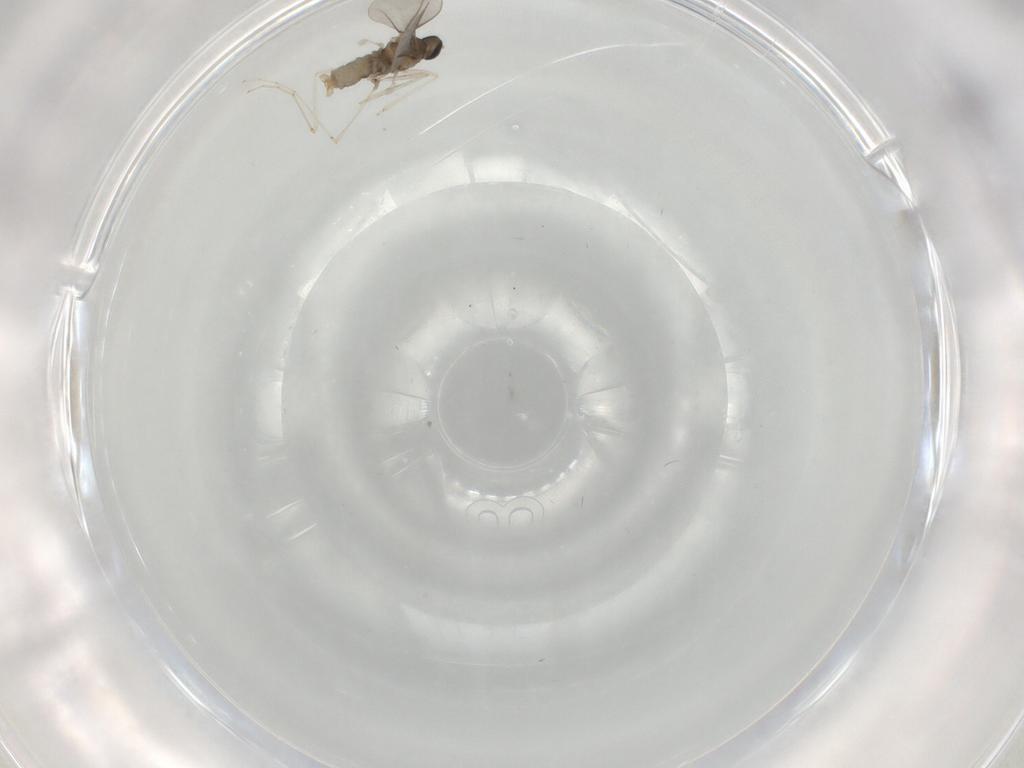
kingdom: Animalia
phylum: Arthropoda
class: Insecta
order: Diptera
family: Cecidomyiidae
